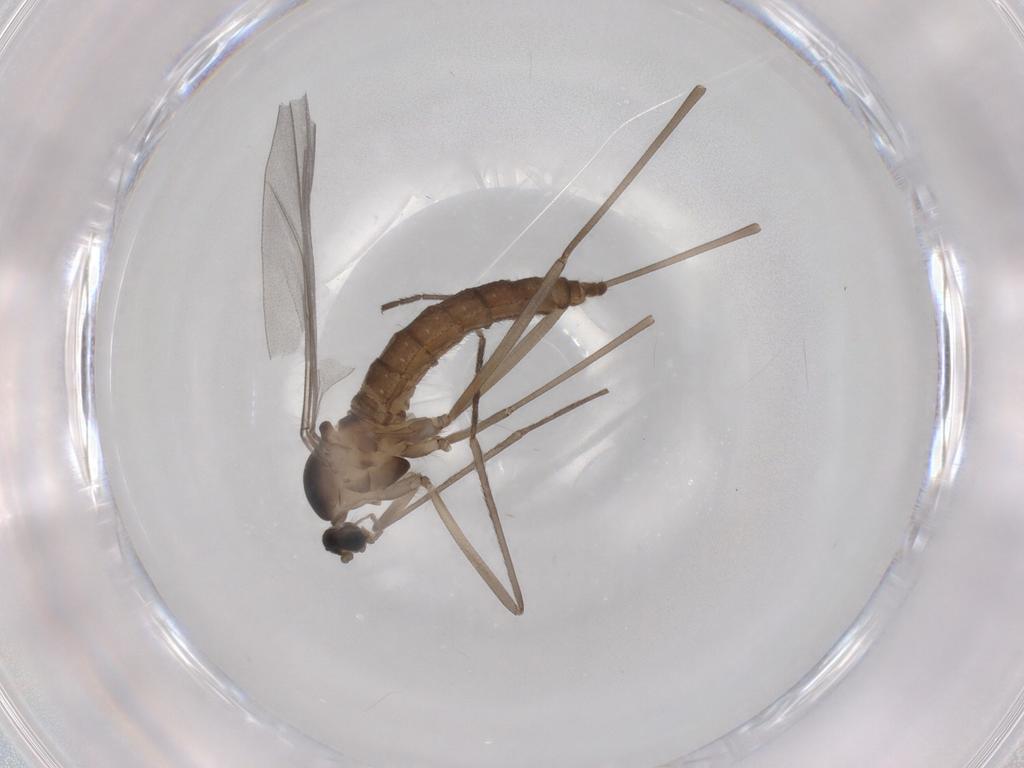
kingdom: Animalia
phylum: Arthropoda
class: Insecta
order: Diptera
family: Cecidomyiidae
